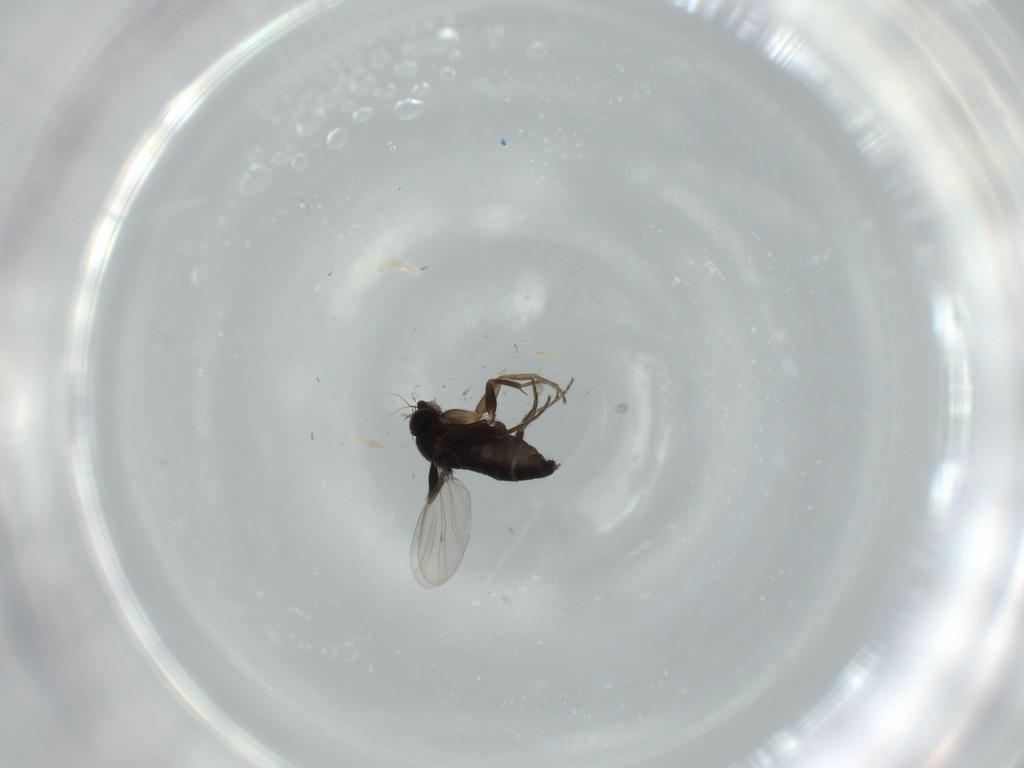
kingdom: Animalia
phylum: Arthropoda
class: Insecta
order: Diptera
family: Phoridae
